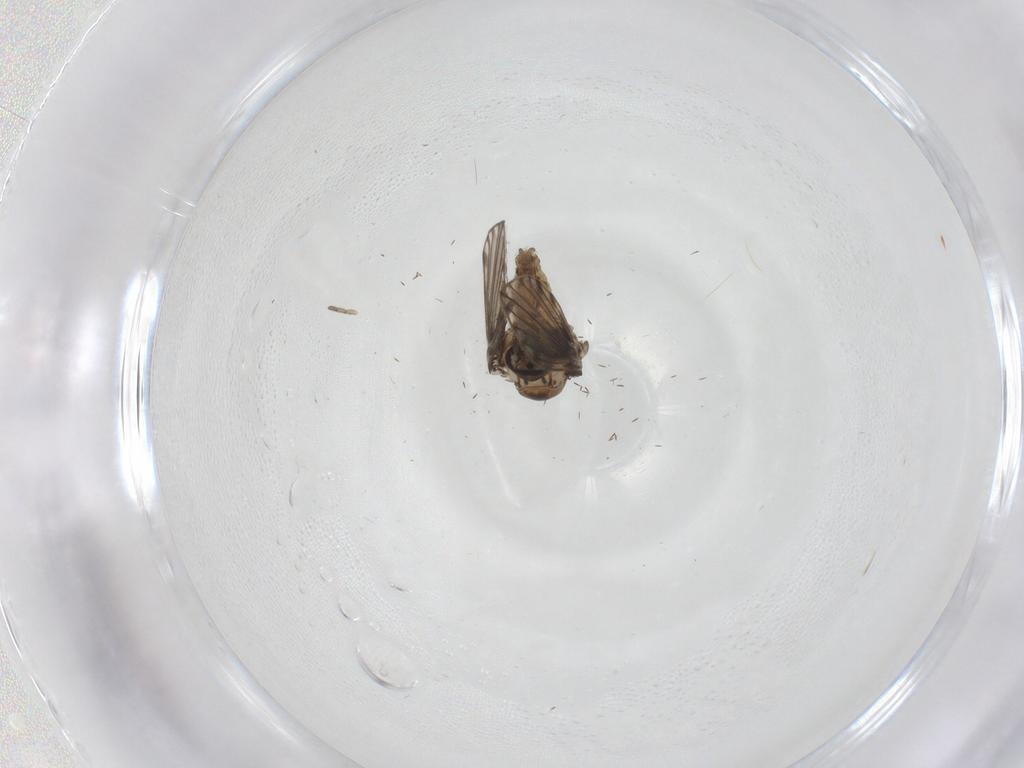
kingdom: Animalia
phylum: Arthropoda
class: Insecta
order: Diptera
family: Psychodidae
